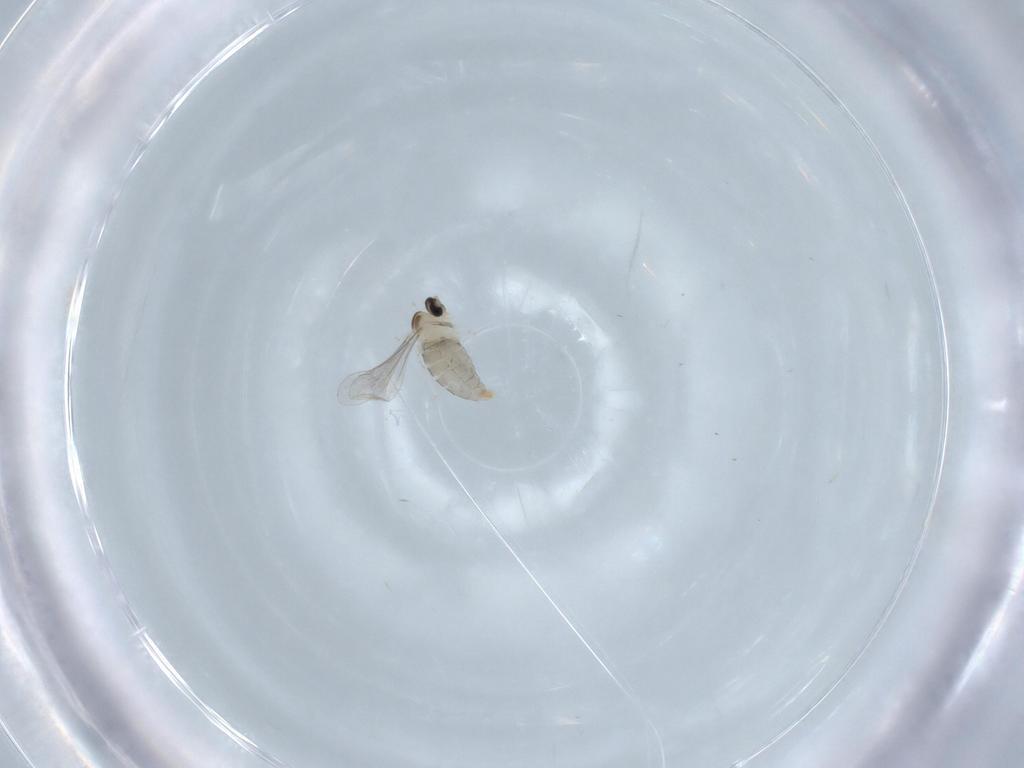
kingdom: Animalia
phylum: Arthropoda
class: Insecta
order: Diptera
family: Cecidomyiidae
